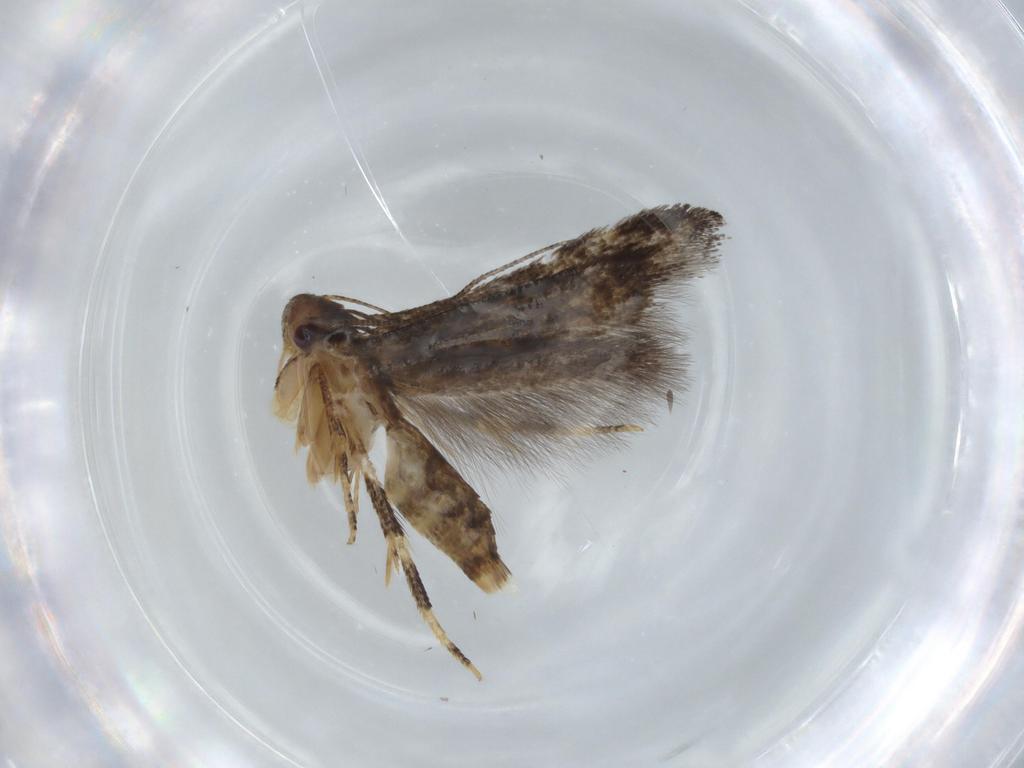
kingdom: Animalia
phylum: Arthropoda
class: Insecta
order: Lepidoptera
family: Momphidae
